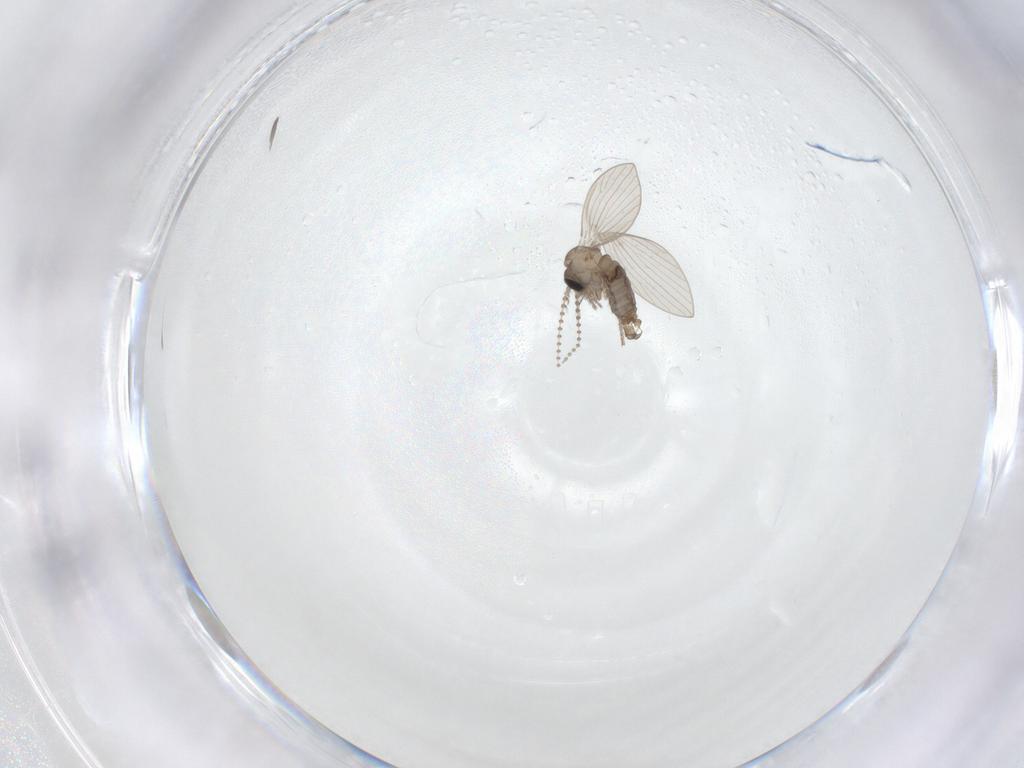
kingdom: Animalia
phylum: Arthropoda
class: Insecta
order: Diptera
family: Psychodidae
